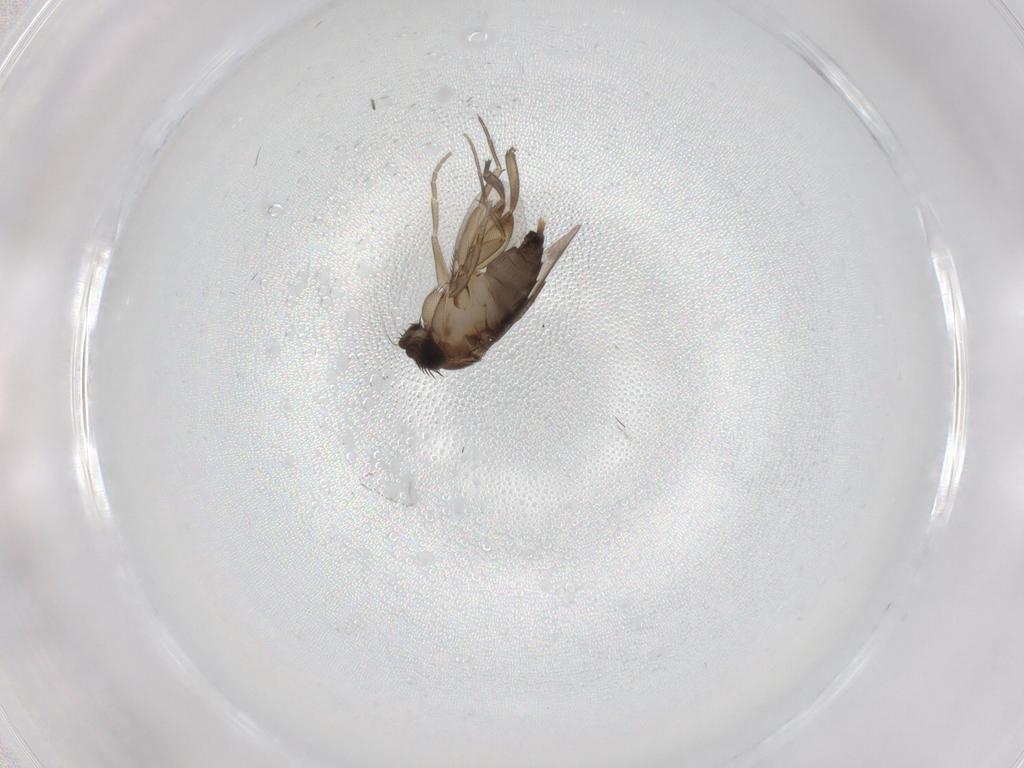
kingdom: Animalia
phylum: Arthropoda
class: Insecta
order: Diptera
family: Phoridae
